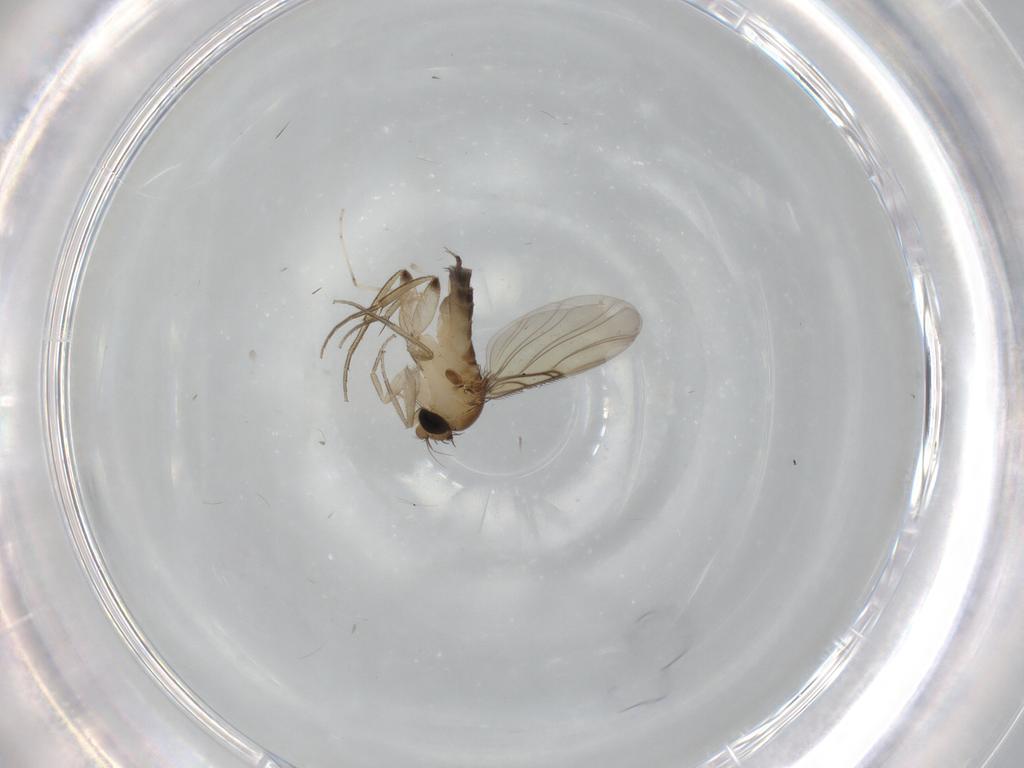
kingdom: Animalia
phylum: Arthropoda
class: Insecta
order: Diptera
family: Phoridae
